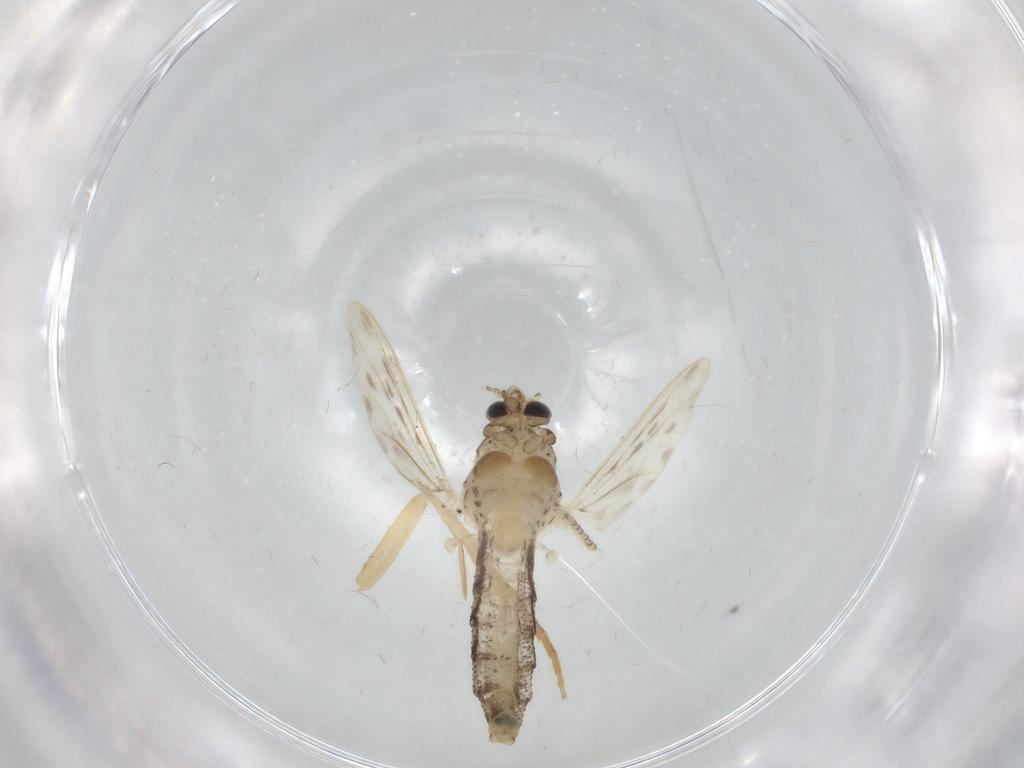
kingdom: Animalia
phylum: Arthropoda
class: Insecta
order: Diptera
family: Chaoboridae
